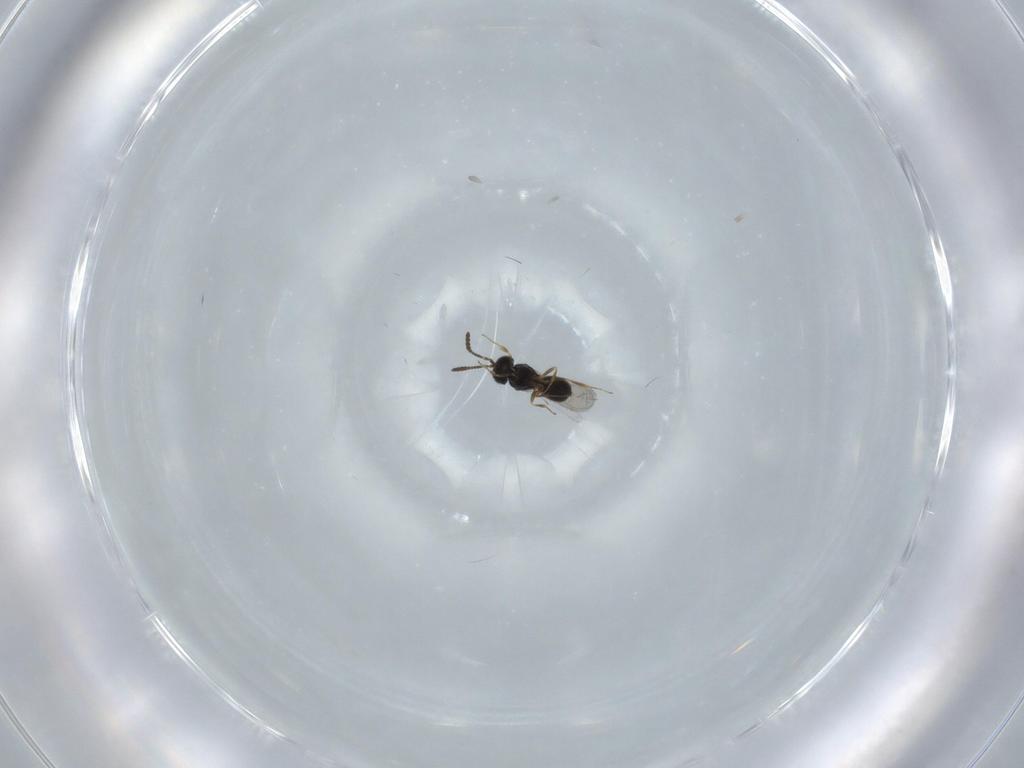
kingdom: Animalia
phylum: Arthropoda
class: Insecta
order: Hymenoptera
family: Scelionidae
